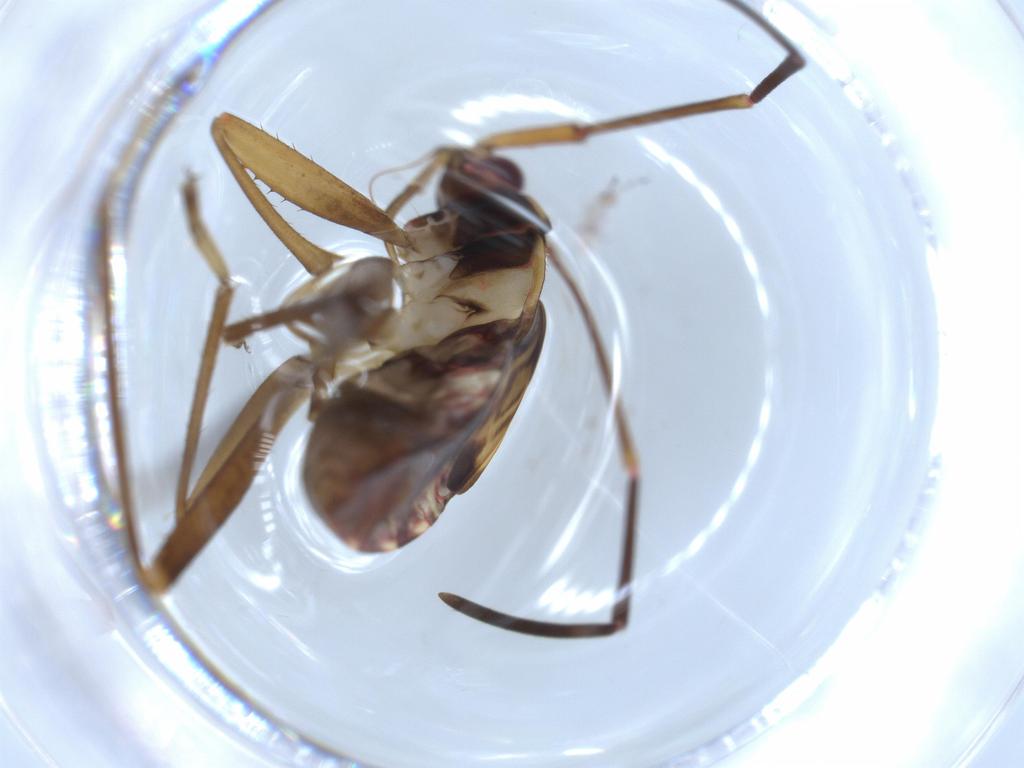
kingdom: Animalia
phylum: Arthropoda
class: Insecta
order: Hemiptera
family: Rhyparochromidae
